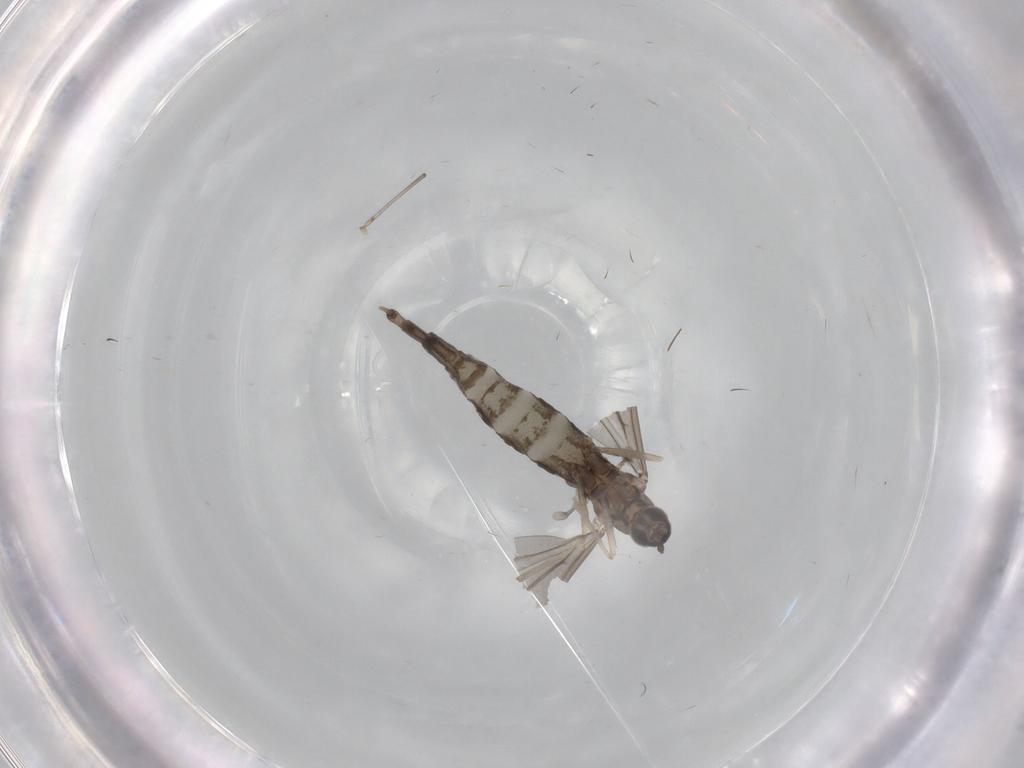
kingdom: Animalia
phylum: Arthropoda
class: Insecta
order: Diptera
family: Cecidomyiidae
